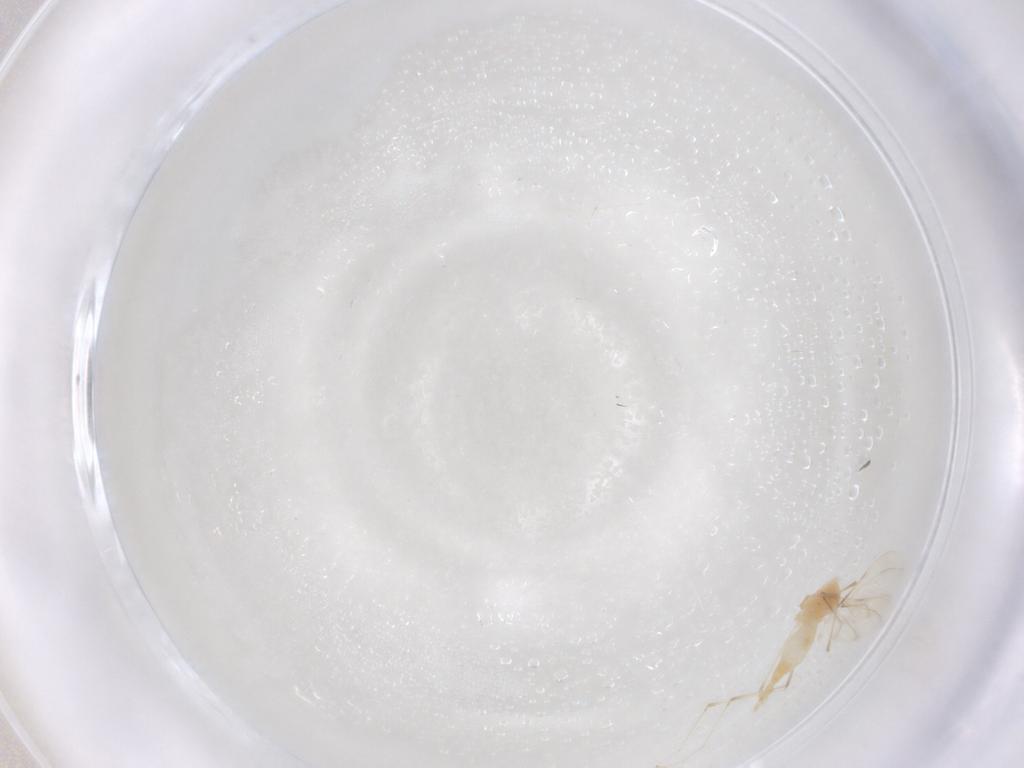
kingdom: Animalia
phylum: Arthropoda
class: Insecta
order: Diptera
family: Cecidomyiidae
